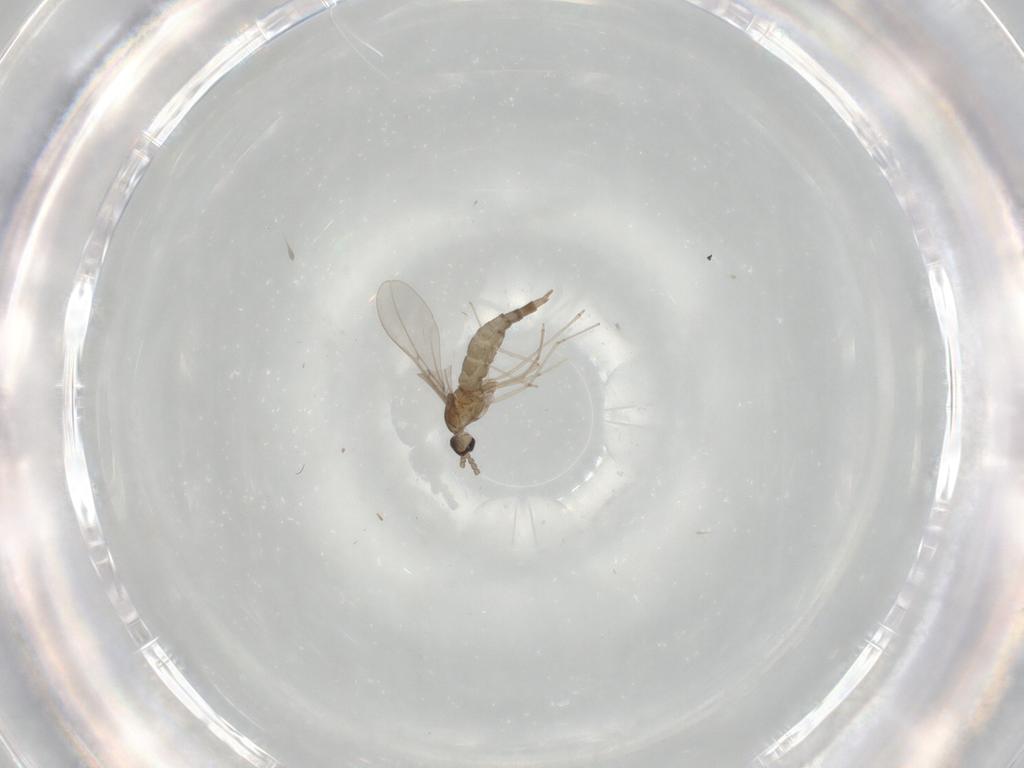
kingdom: Animalia
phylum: Arthropoda
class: Insecta
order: Diptera
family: Cecidomyiidae
